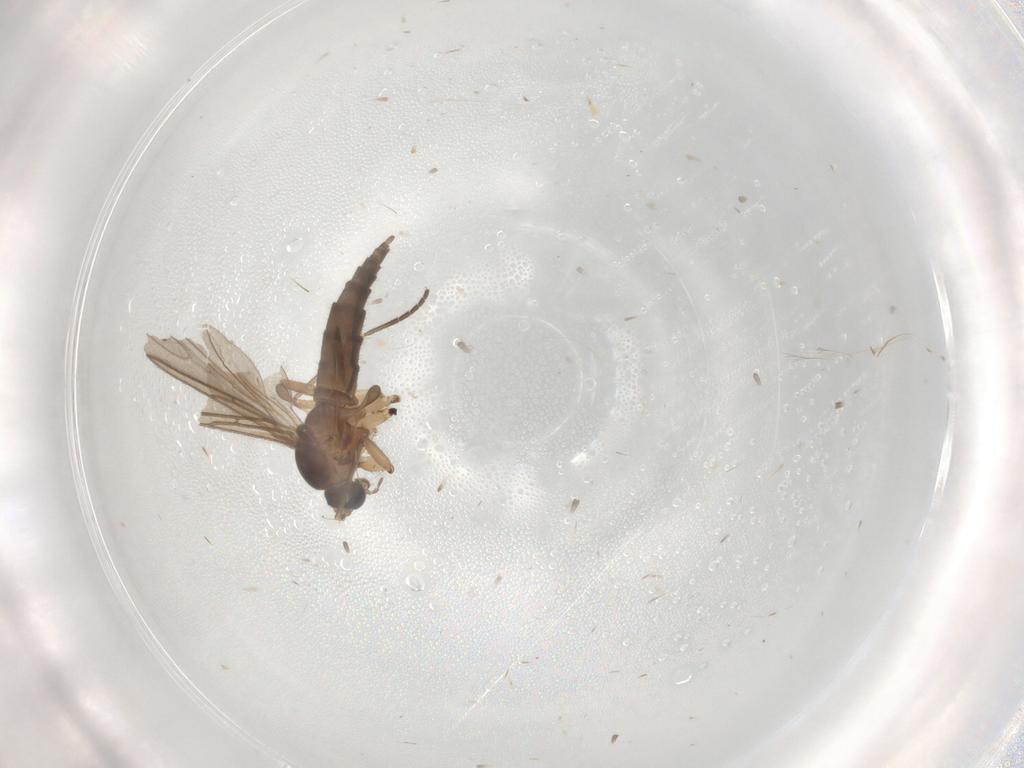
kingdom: Animalia
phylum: Arthropoda
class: Insecta
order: Diptera
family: Sciaridae
